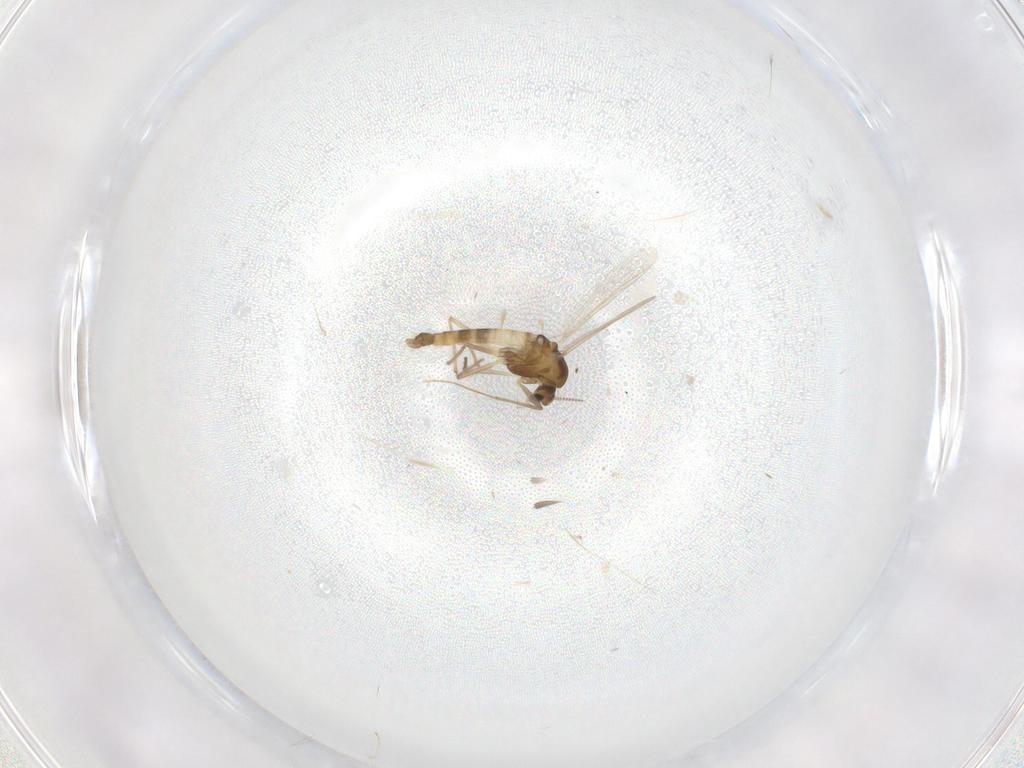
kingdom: Animalia
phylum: Arthropoda
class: Insecta
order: Diptera
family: Chironomidae
